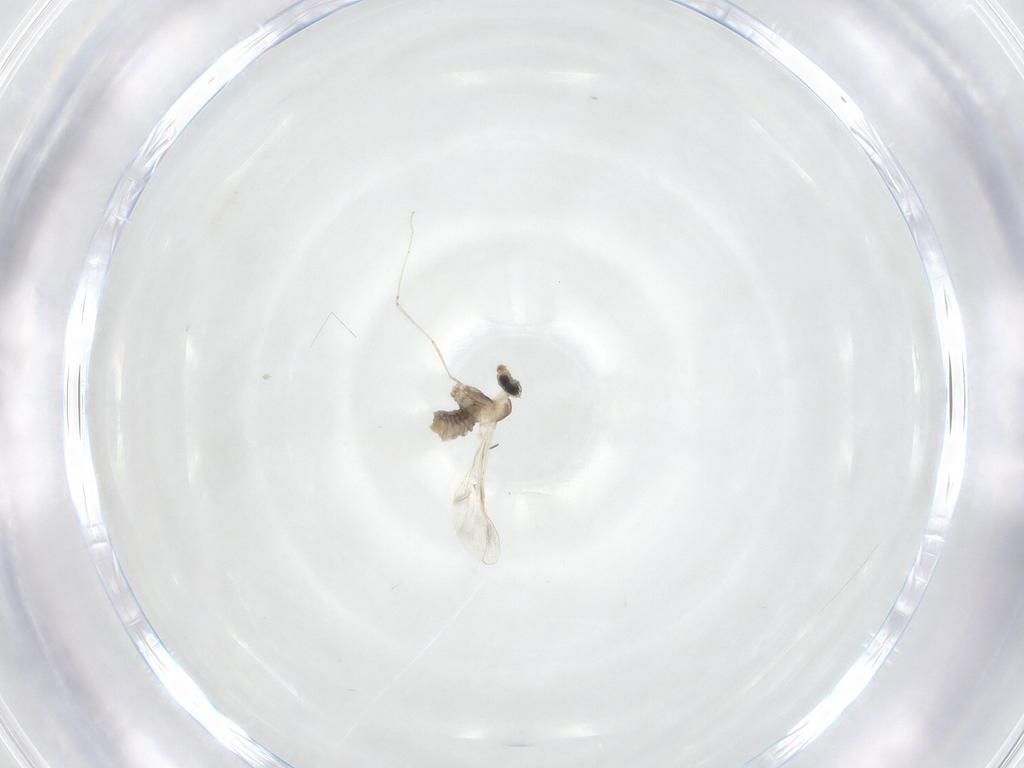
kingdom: Animalia
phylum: Arthropoda
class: Insecta
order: Diptera
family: Cecidomyiidae
